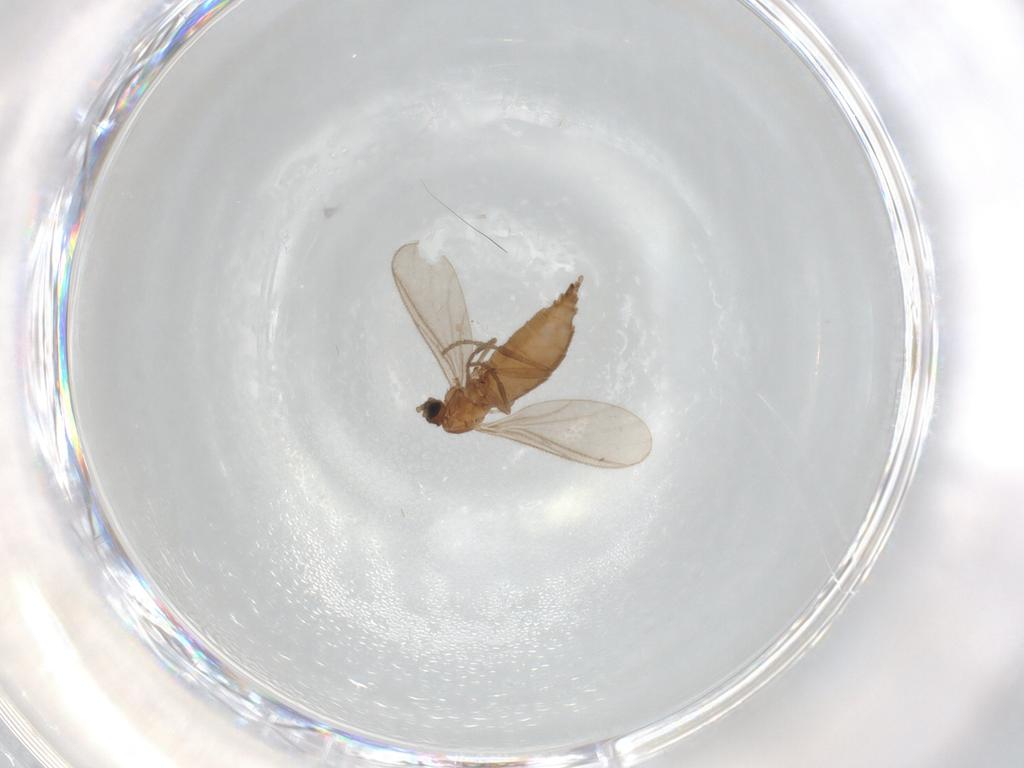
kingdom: Animalia
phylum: Arthropoda
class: Insecta
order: Diptera
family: Sciaridae
